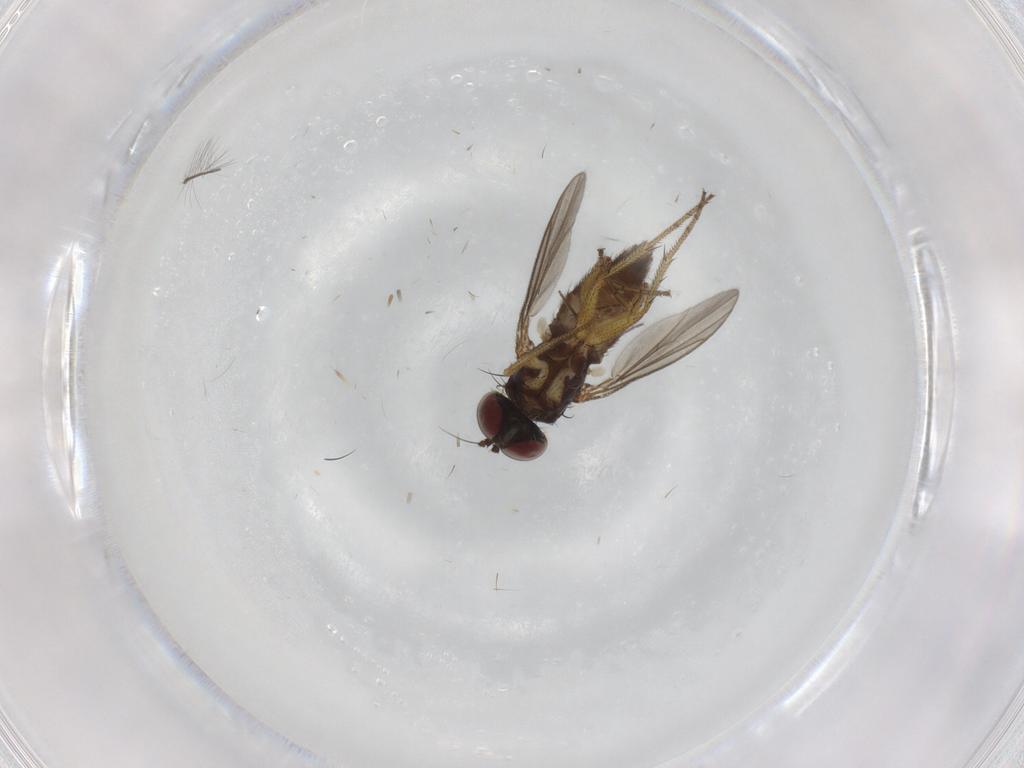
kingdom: Animalia
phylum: Arthropoda
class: Insecta
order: Diptera
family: Chironomidae
